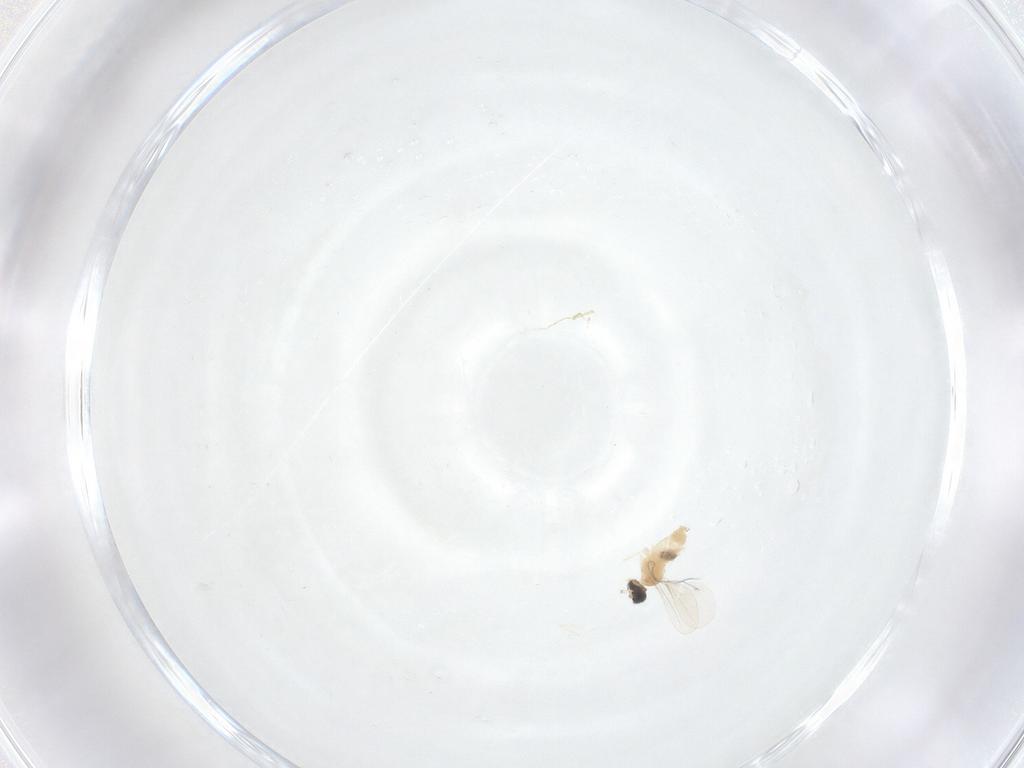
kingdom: Animalia
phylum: Arthropoda
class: Insecta
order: Diptera
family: Cecidomyiidae
